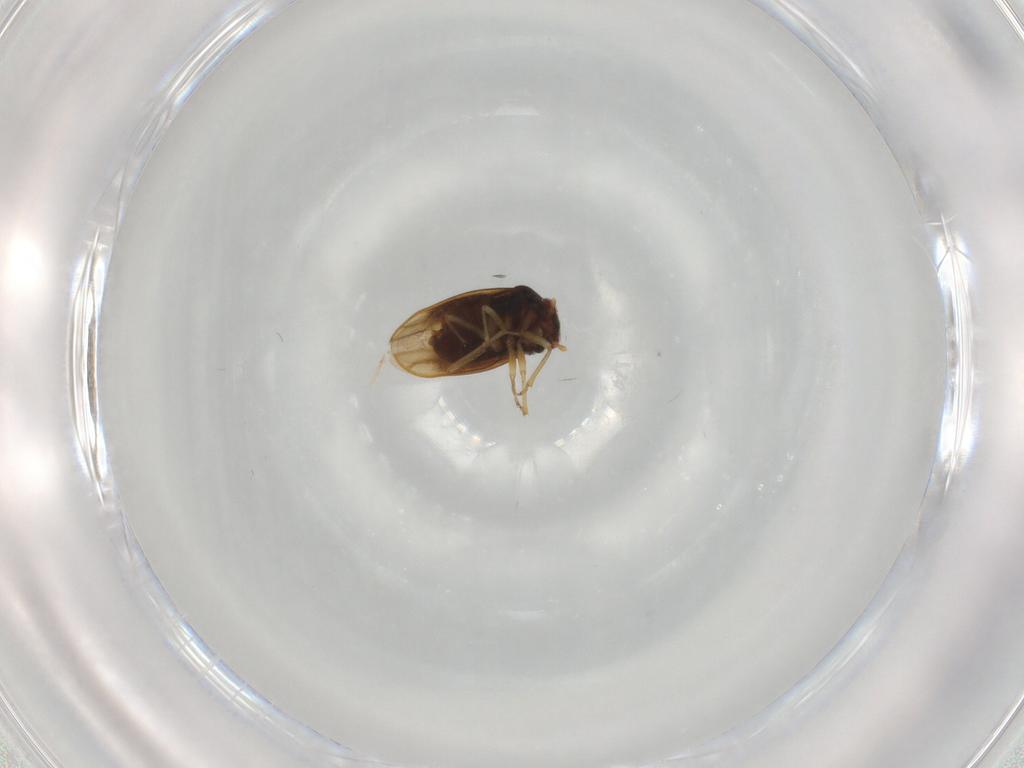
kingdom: Animalia
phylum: Arthropoda
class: Insecta
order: Hemiptera
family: Schizopteridae
